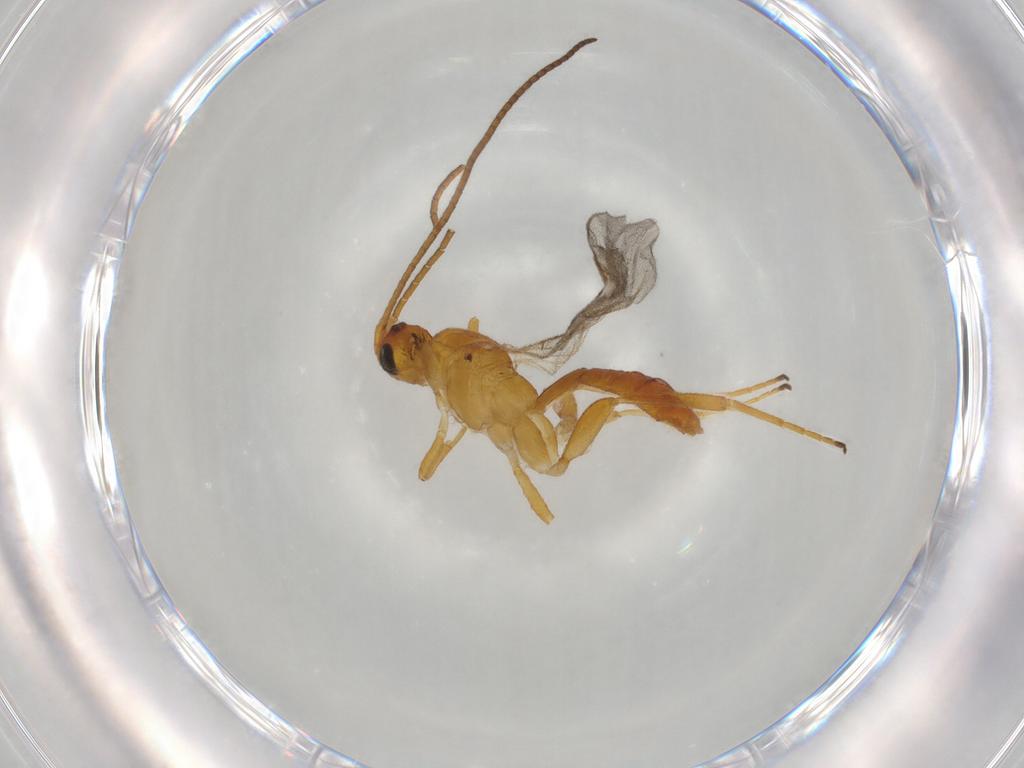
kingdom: Animalia
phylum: Arthropoda
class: Insecta
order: Hymenoptera
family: Braconidae
